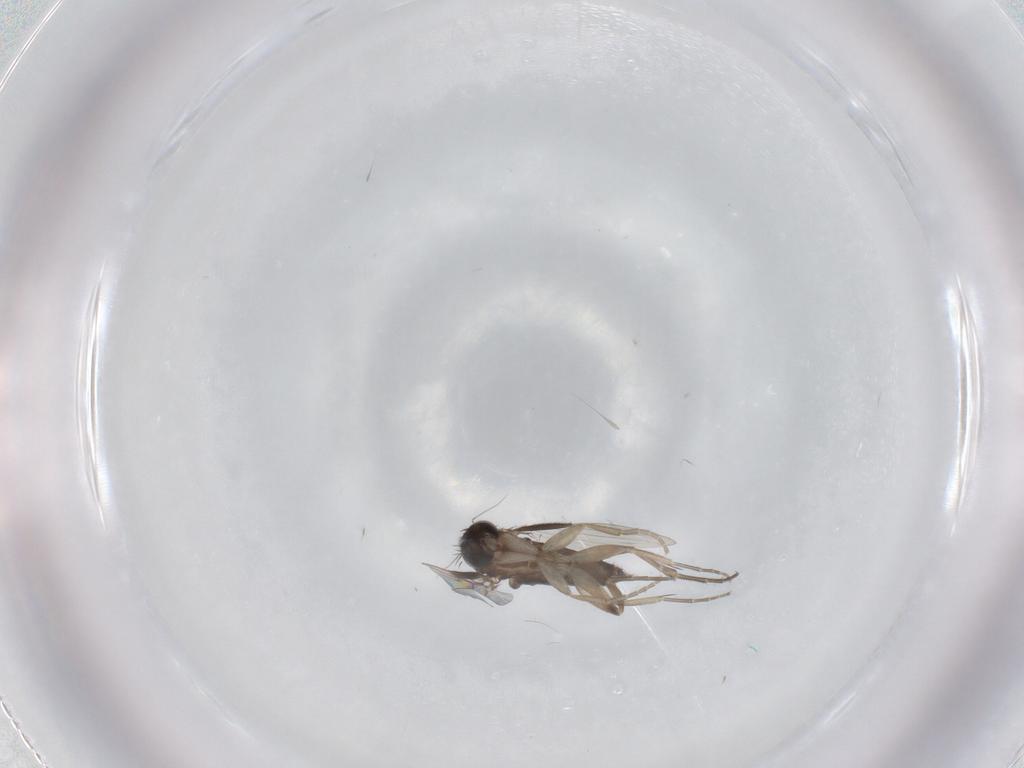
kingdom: Animalia
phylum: Arthropoda
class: Insecta
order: Diptera
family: Phoridae
